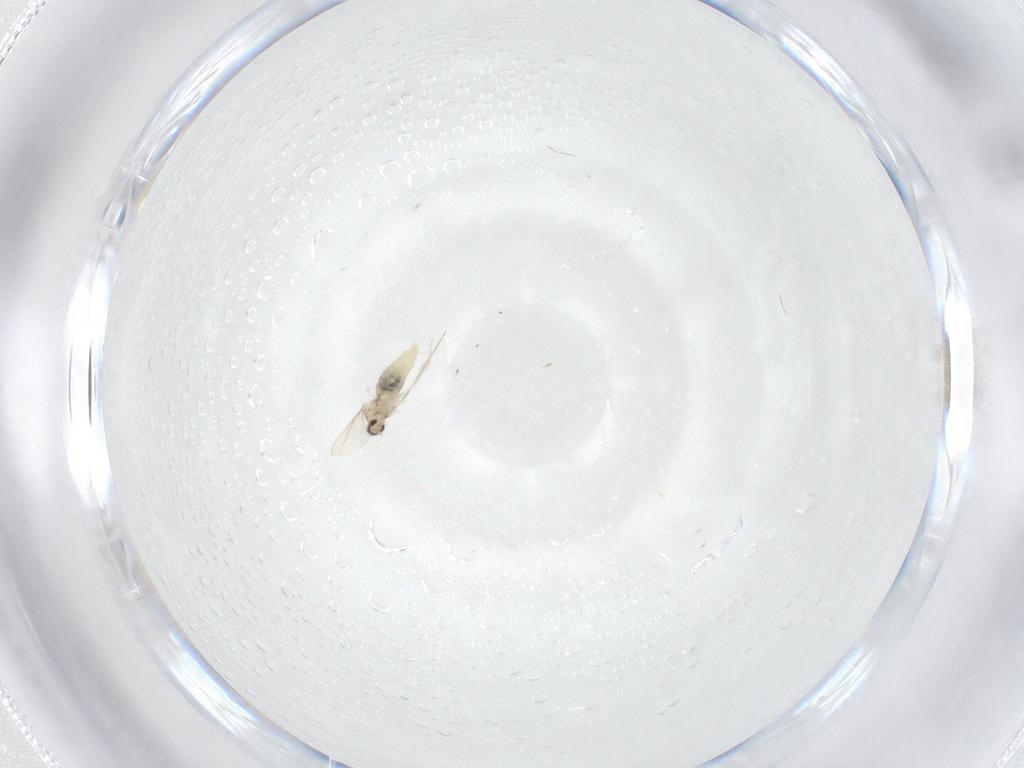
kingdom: Animalia
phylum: Arthropoda
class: Insecta
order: Diptera
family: Cecidomyiidae
